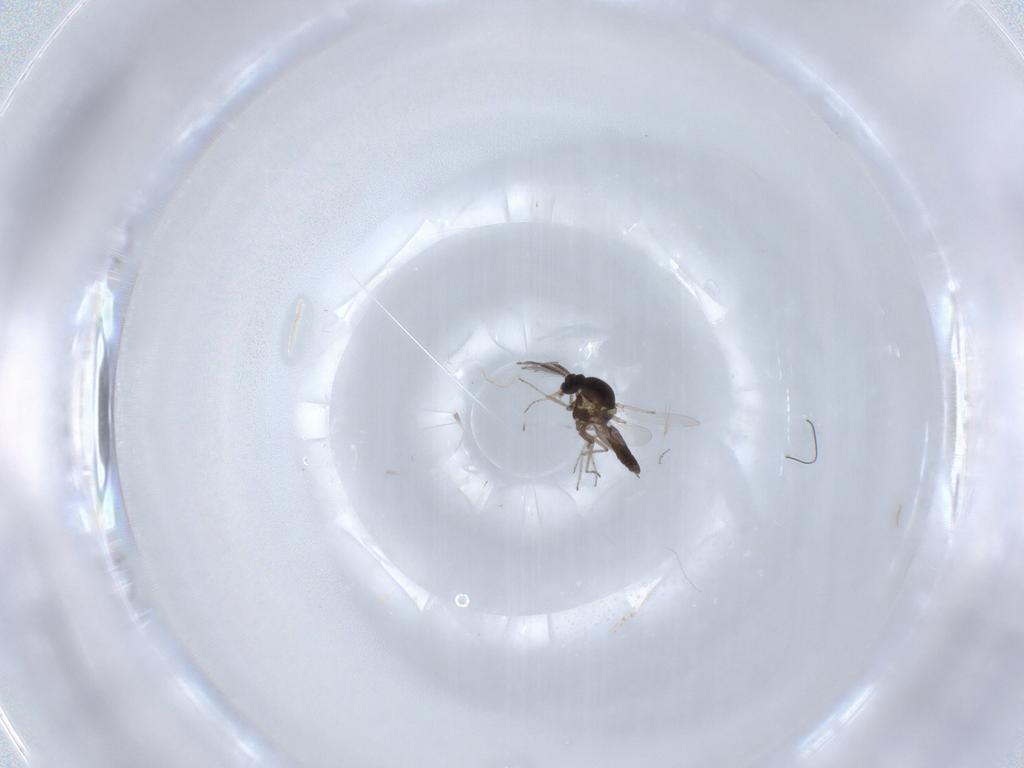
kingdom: Animalia
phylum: Arthropoda
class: Insecta
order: Diptera
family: Ceratopogonidae
